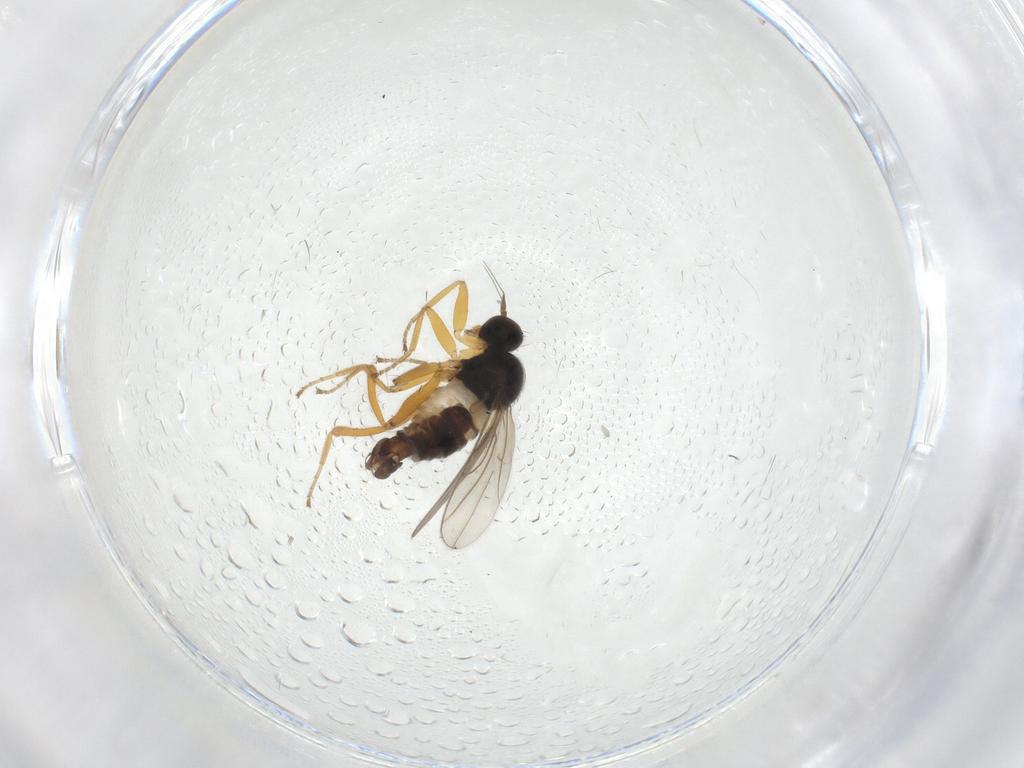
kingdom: Animalia
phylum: Arthropoda
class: Insecta
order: Diptera
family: Hybotidae
